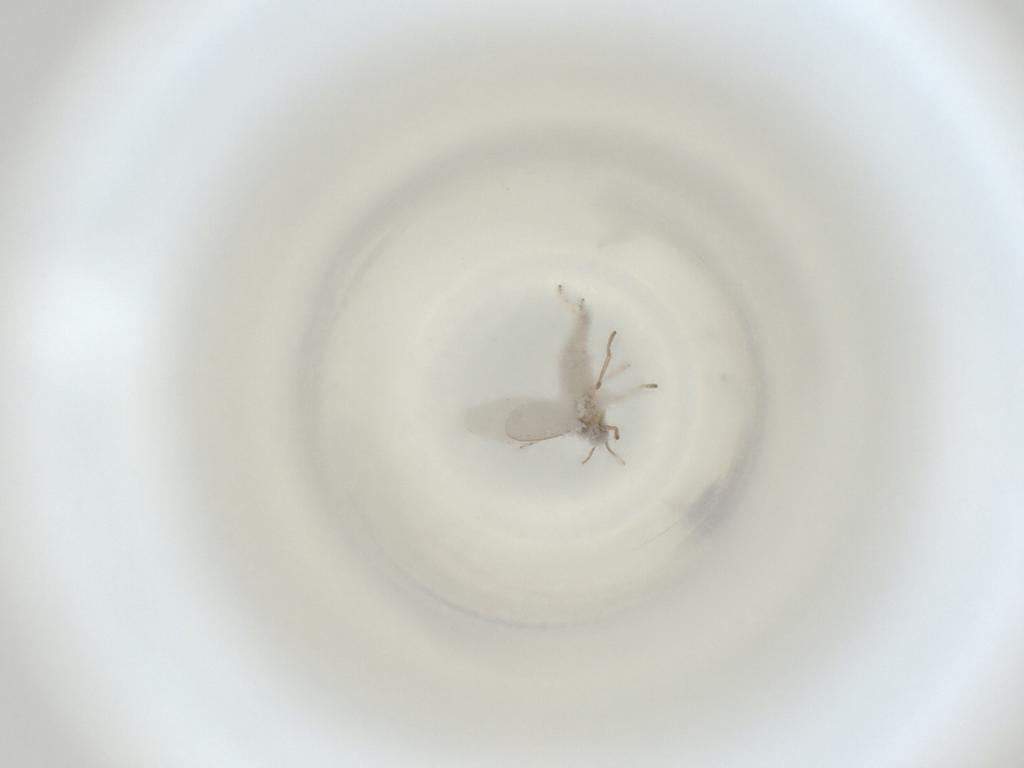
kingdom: Animalia
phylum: Arthropoda
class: Insecta
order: Diptera
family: Cecidomyiidae
